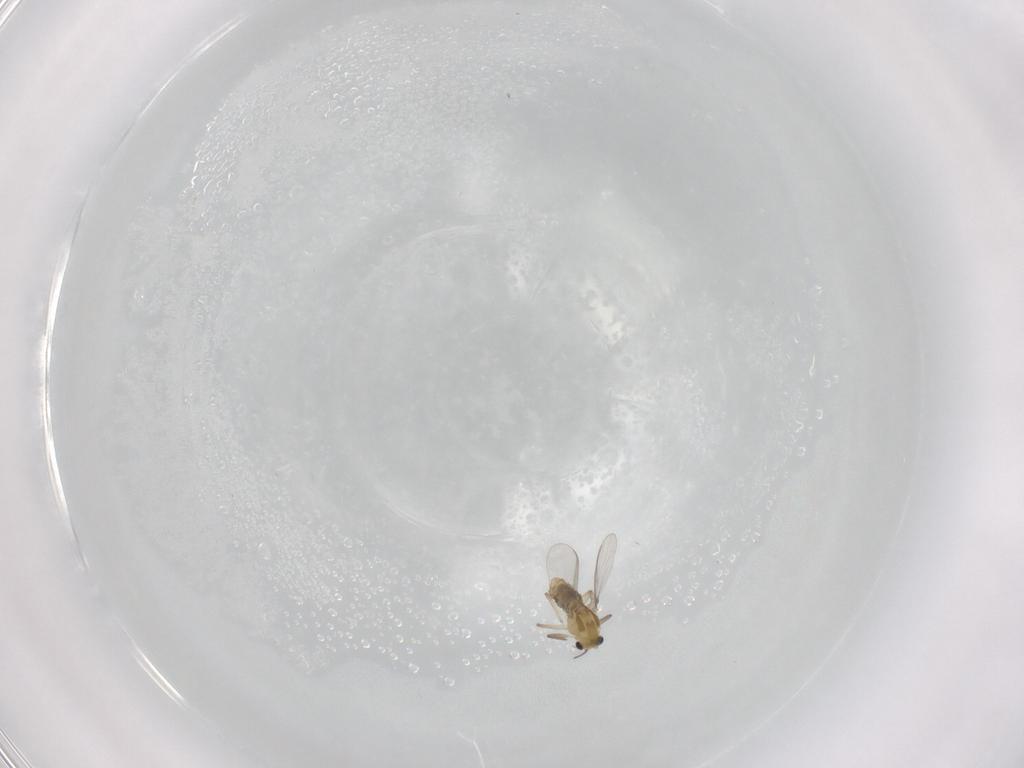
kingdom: Animalia
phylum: Arthropoda
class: Insecta
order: Diptera
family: Chironomidae
